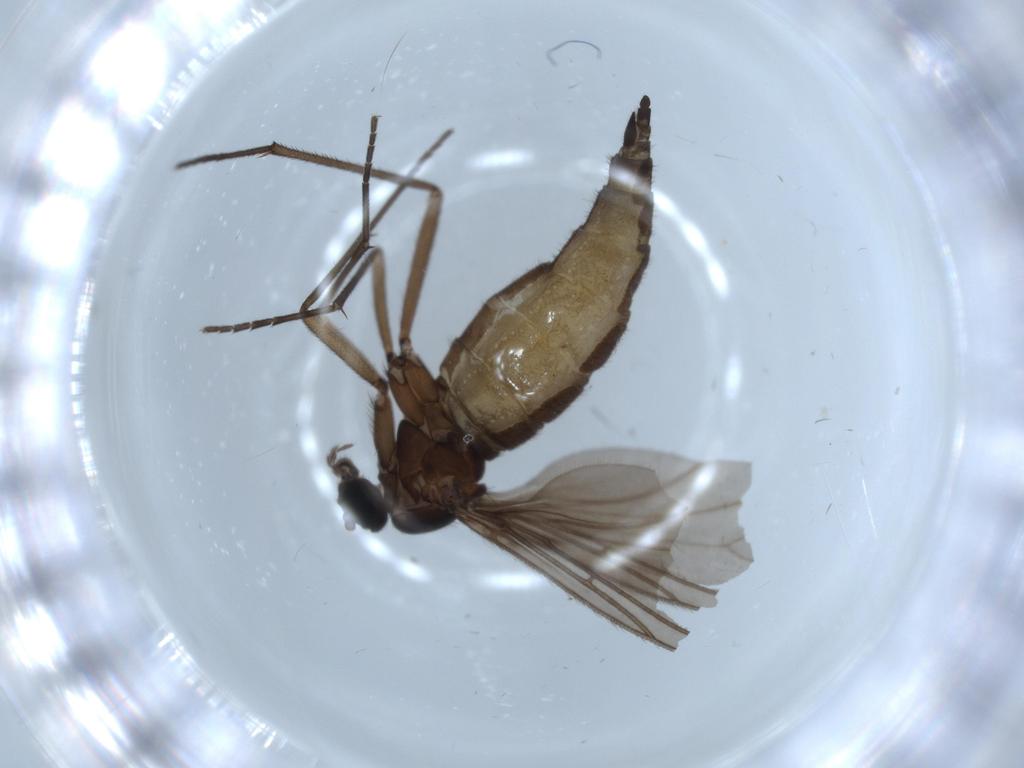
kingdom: Animalia
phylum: Arthropoda
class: Insecta
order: Diptera
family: Sciaridae
